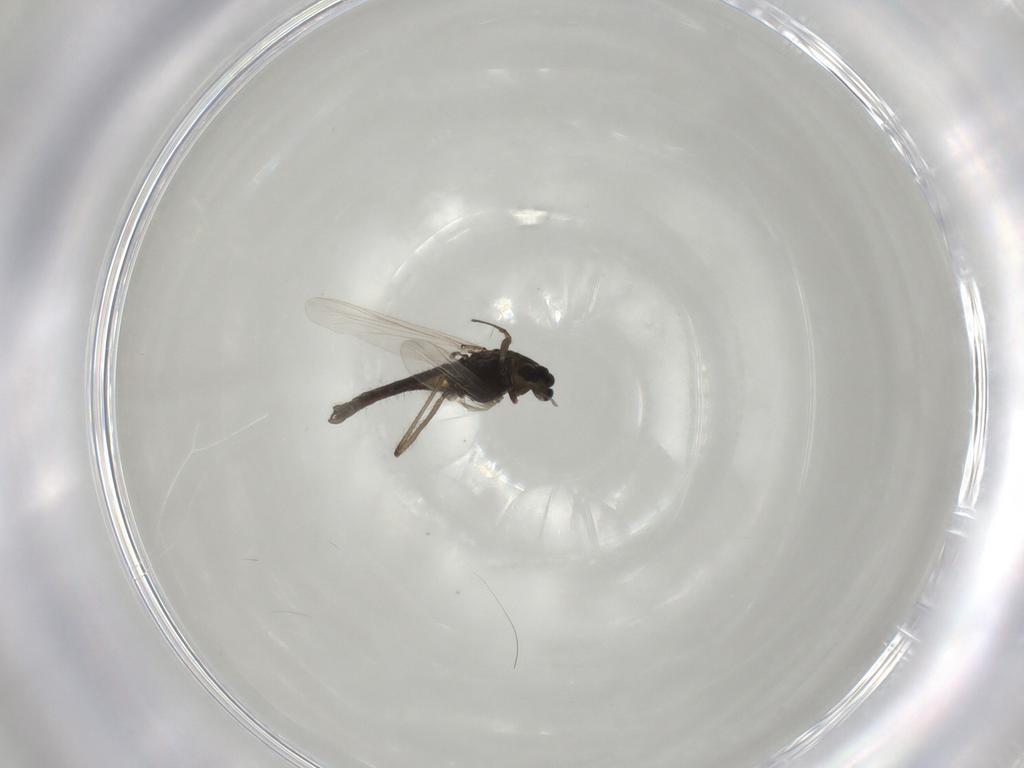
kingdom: Animalia
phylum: Arthropoda
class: Insecta
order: Diptera
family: Chironomidae
